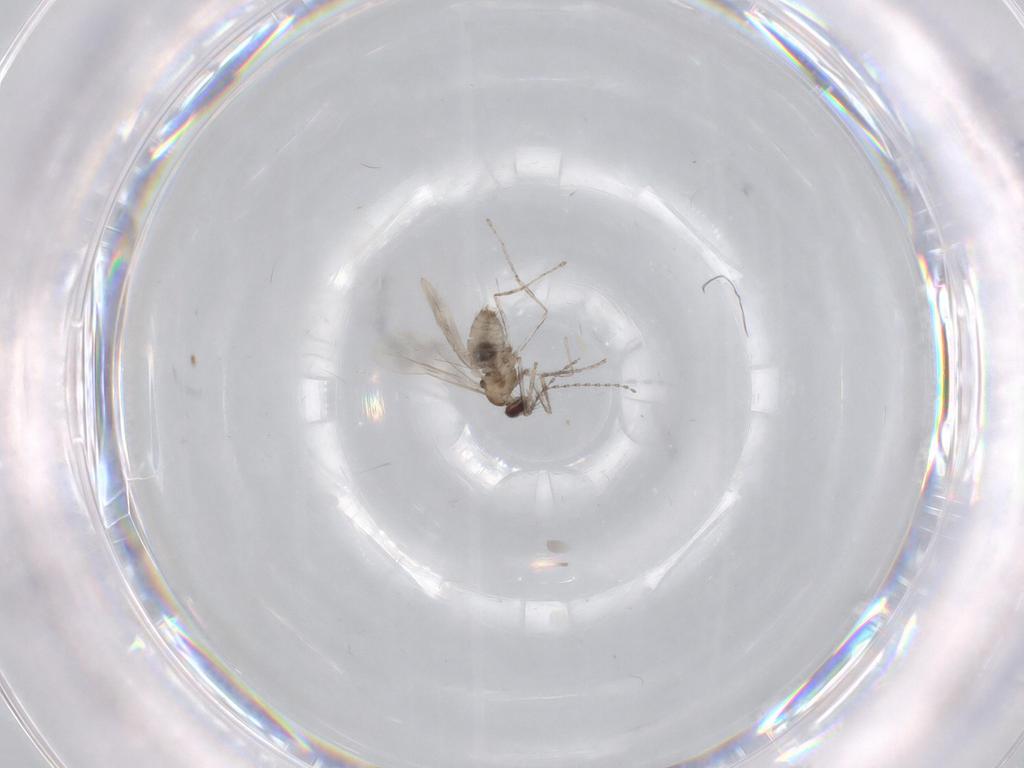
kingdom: Animalia
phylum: Arthropoda
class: Insecta
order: Diptera
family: Cecidomyiidae
